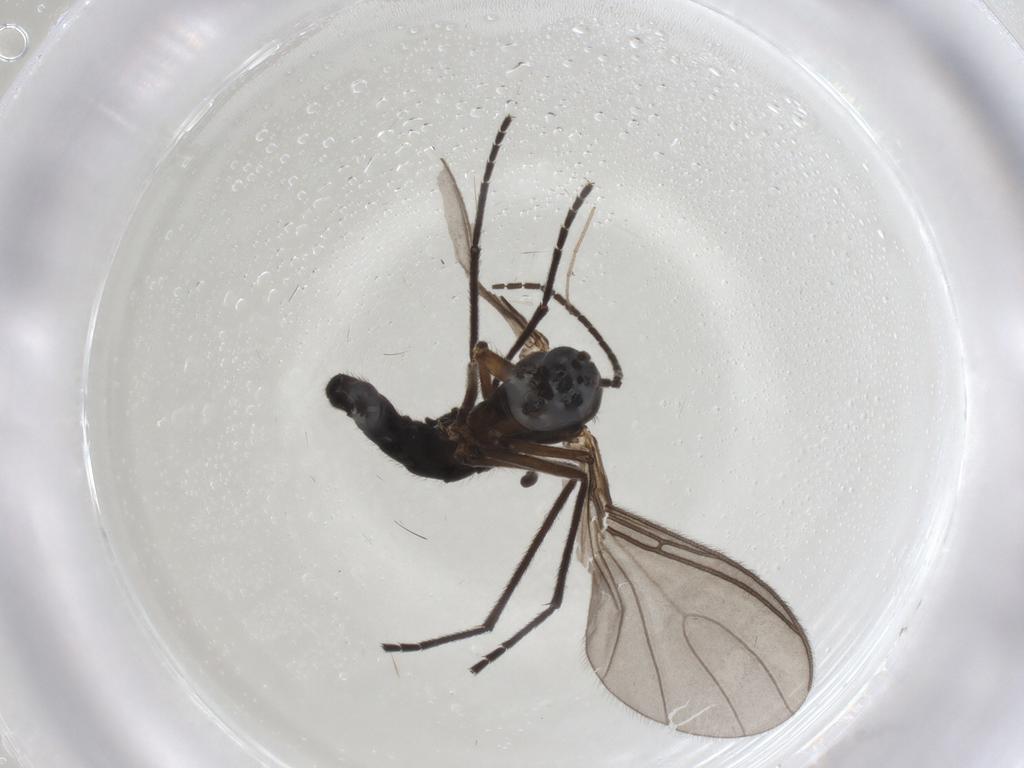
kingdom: Animalia
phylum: Arthropoda
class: Insecta
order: Diptera
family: Sciaridae
